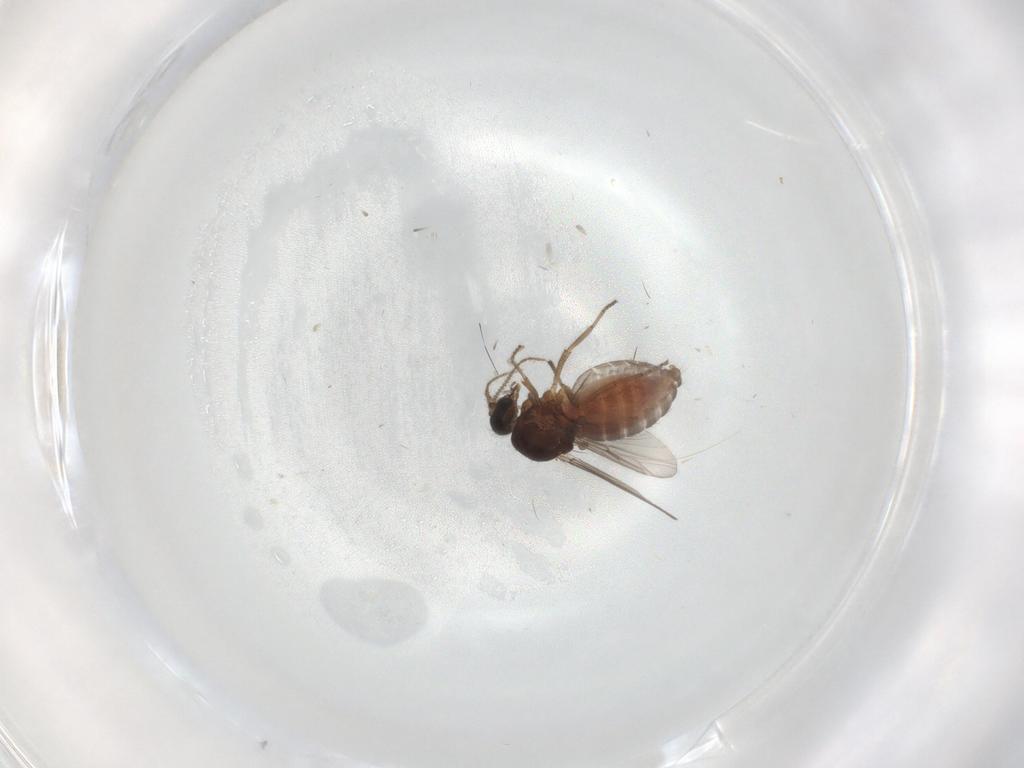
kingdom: Animalia
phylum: Arthropoda
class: Insecta
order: Diptera
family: Ceratopogonidae
